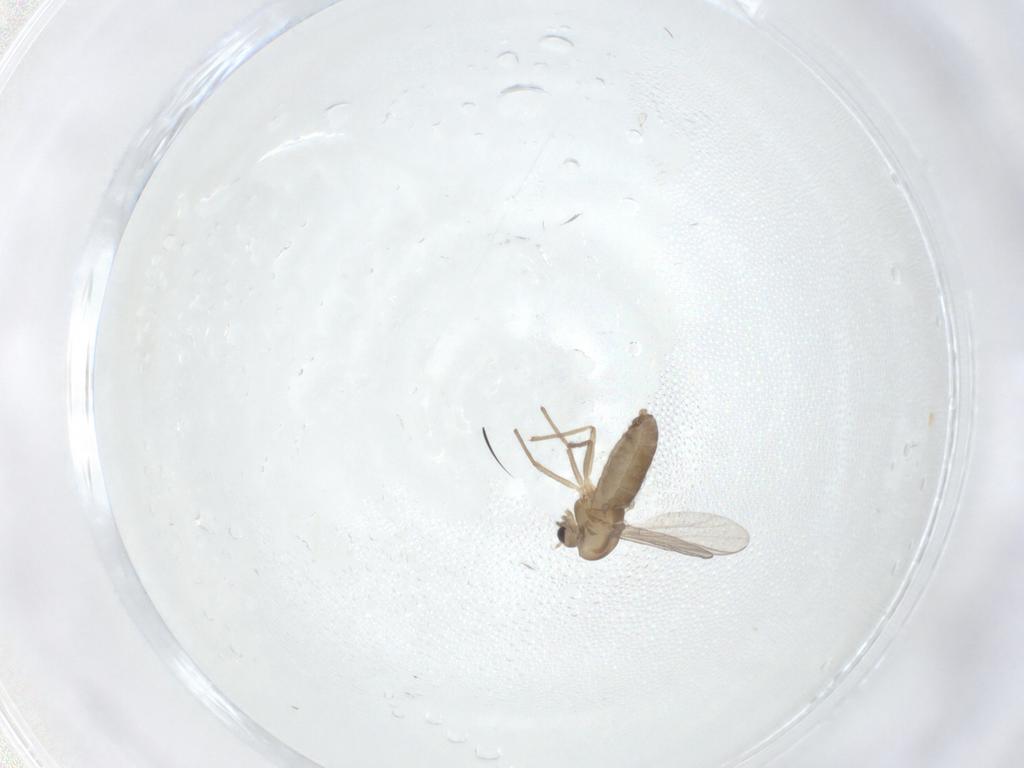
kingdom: Animalia
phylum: Arthropoda
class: Insecta
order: Diptera
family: Chironomidae
